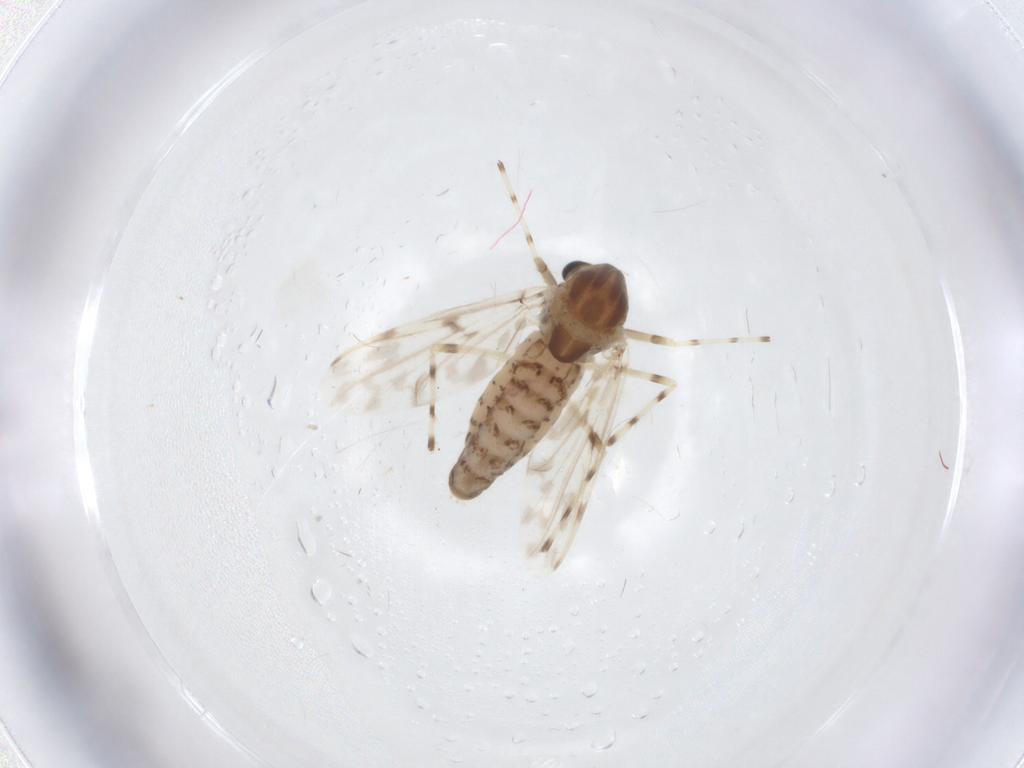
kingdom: Animalia
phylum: Arthropoda
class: Insecta
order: Diptera
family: Chironomidae
